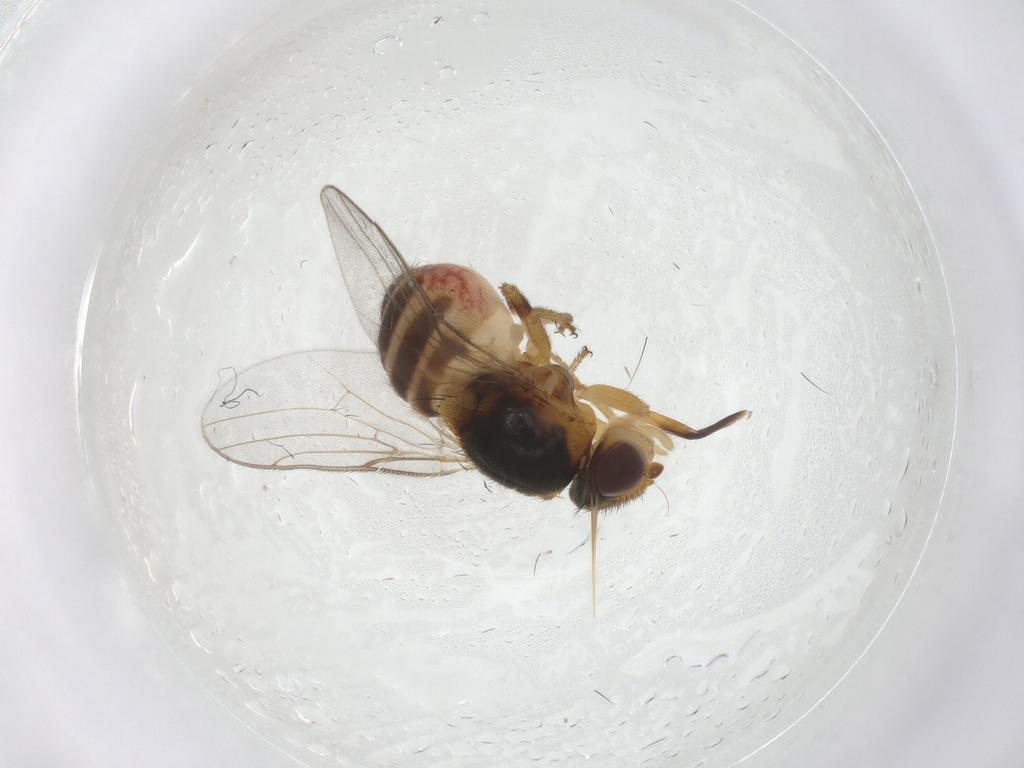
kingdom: Animalia
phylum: Arthropoda
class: Insecta
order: Diptera
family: Chloropidae
